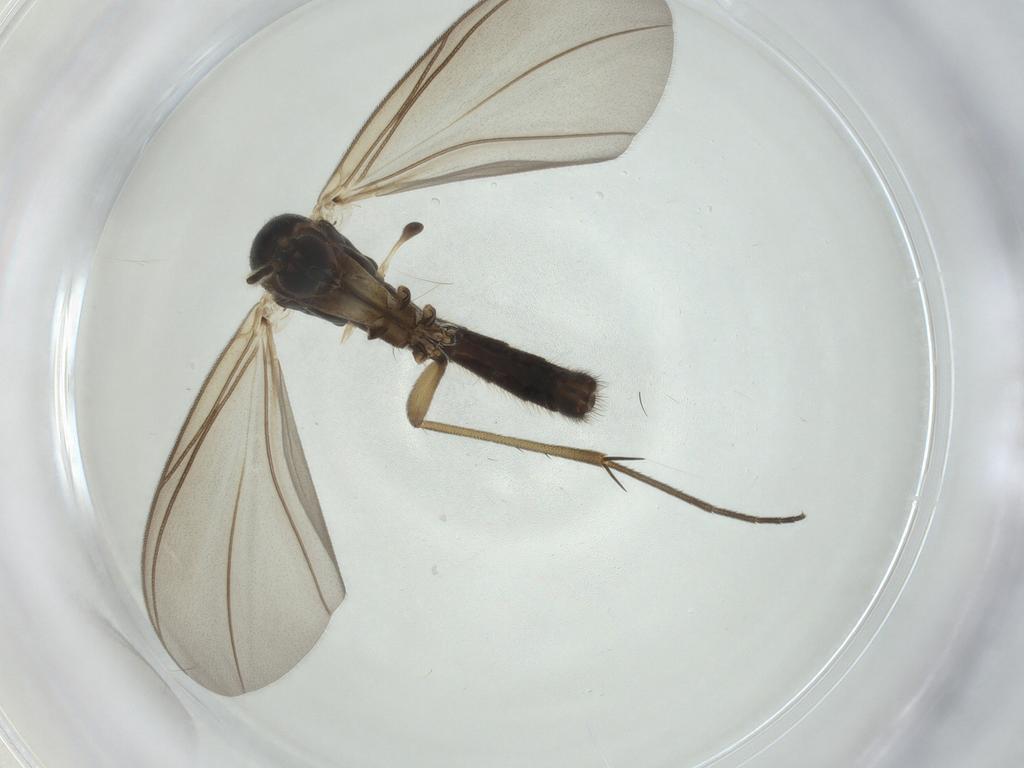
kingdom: Animalia
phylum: Arthropoda
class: Insecta
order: Diptera
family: Mycetophilidae
